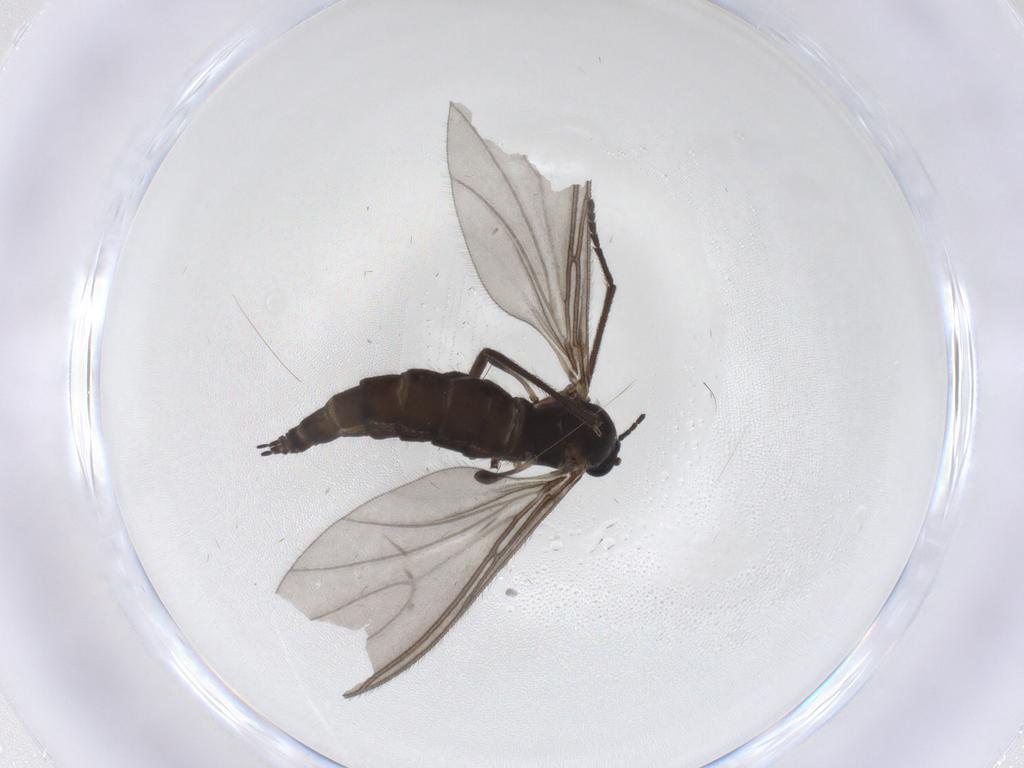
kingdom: Animalia
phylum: Arthropoda
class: Insecta
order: Diptera
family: Sciaridae
